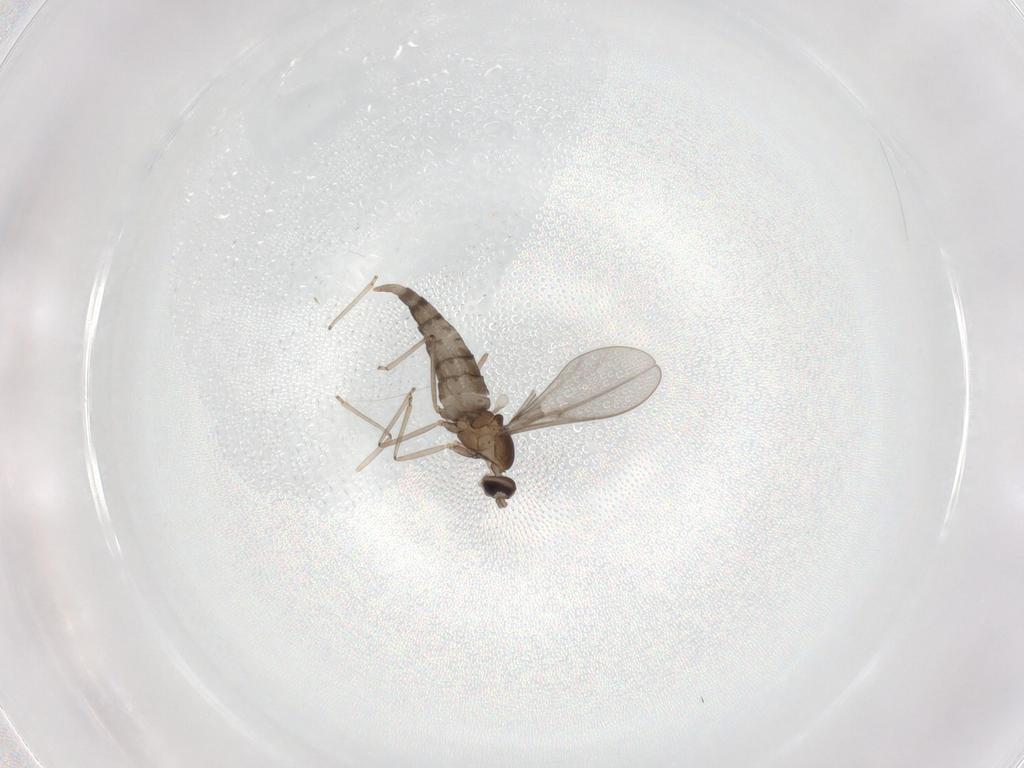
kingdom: Animalia
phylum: Arthropoda
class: Insecta
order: Diptera
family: Cecidomyiidae
